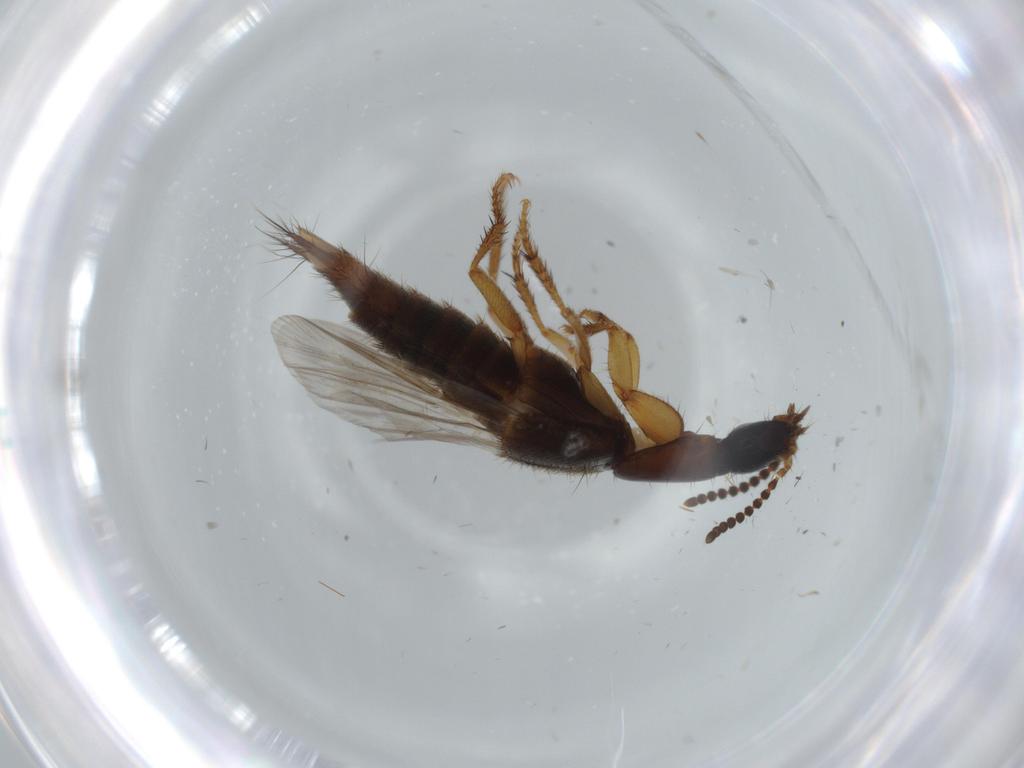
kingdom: Animalia
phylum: Arthropoda
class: Insecta
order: Coleoptera
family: Staphylinidae
